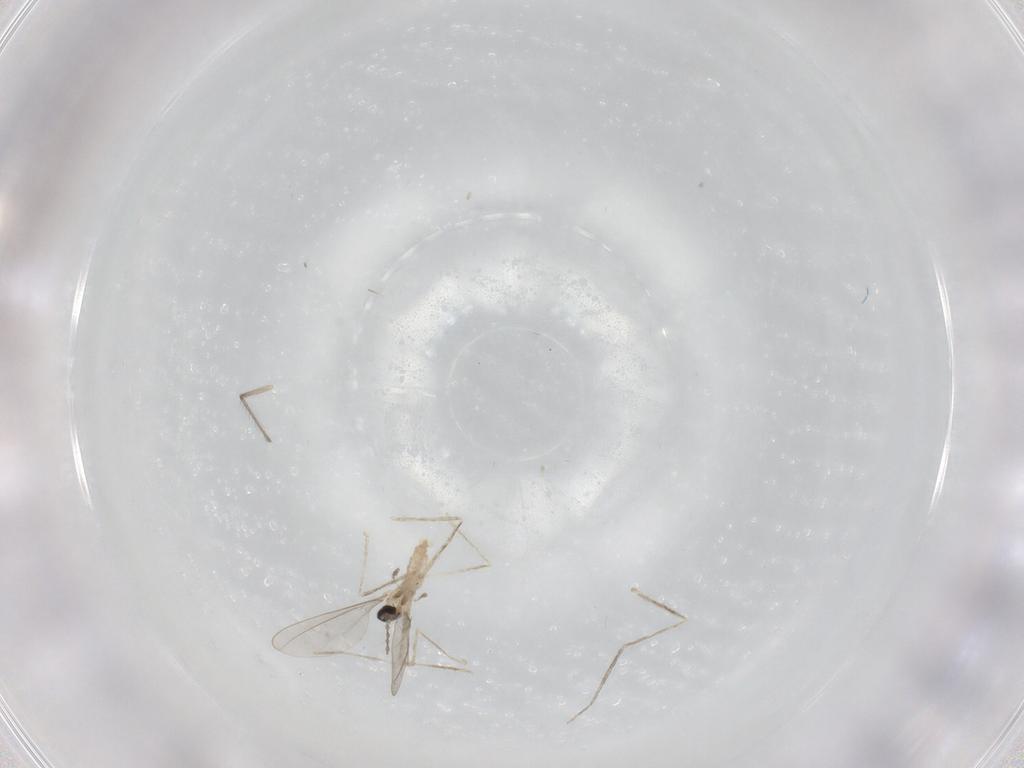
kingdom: Animalia
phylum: Arthropoda
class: Insecta
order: Diptera
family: Cecidomyiidae
